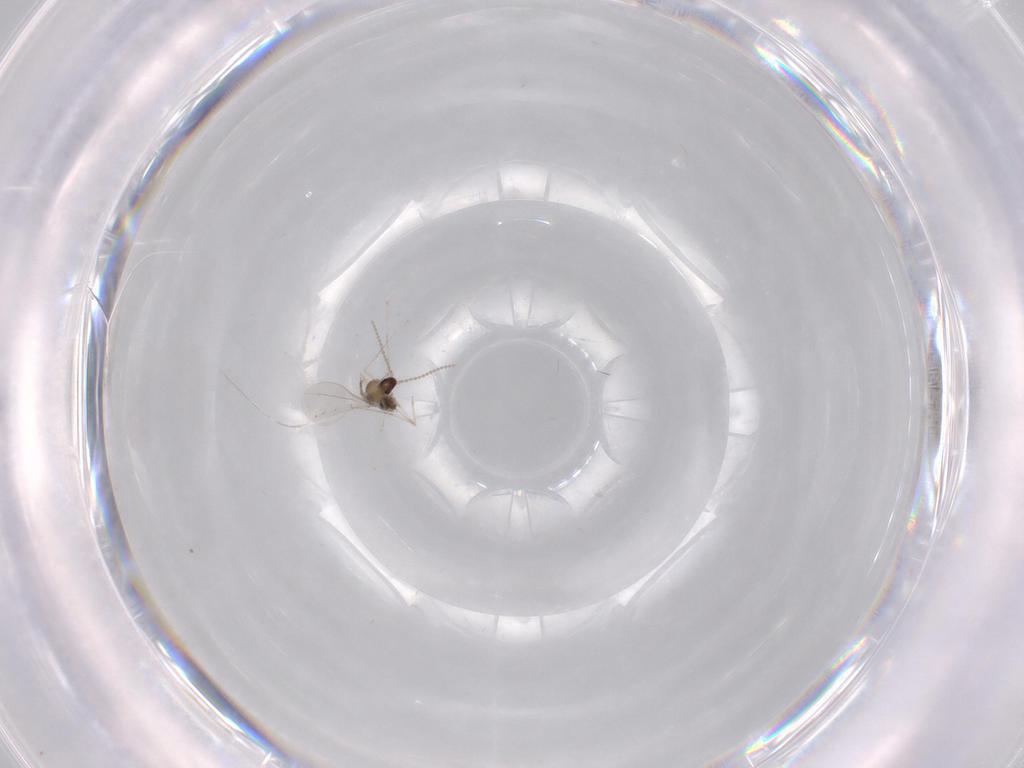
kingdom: Animalia
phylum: Arthropoda
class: Insecta
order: Diptera
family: Cecidomyiidae
